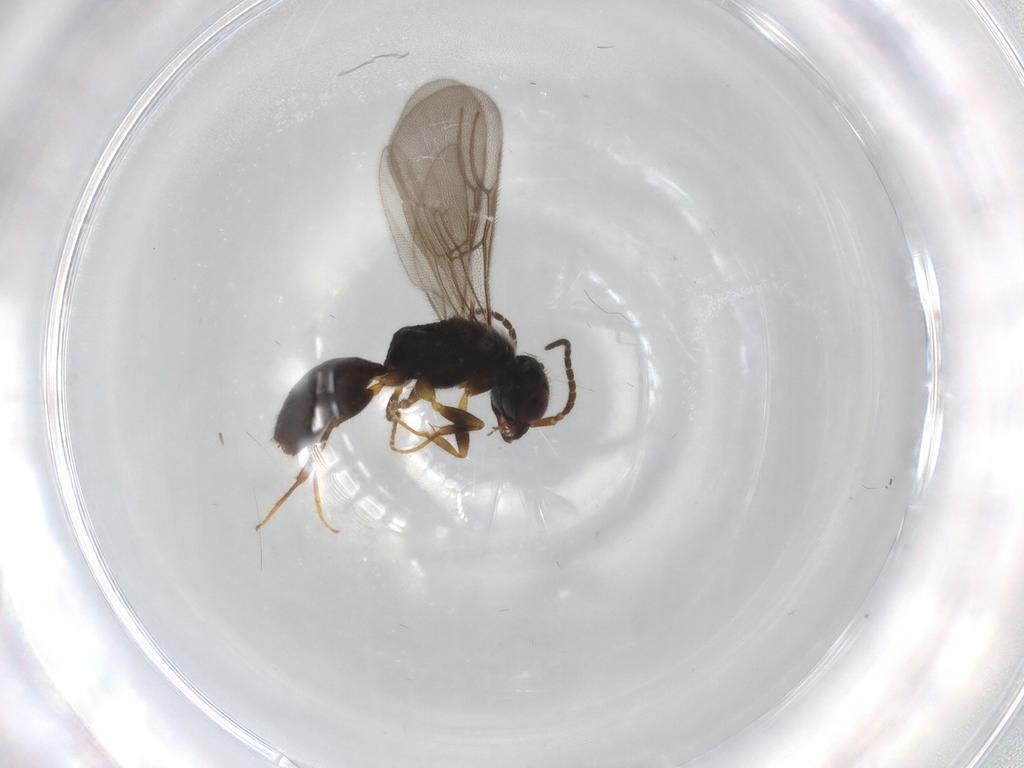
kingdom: Animalia
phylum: Arthropoda
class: Insecta
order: Hymenoptera
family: Bethylidae
